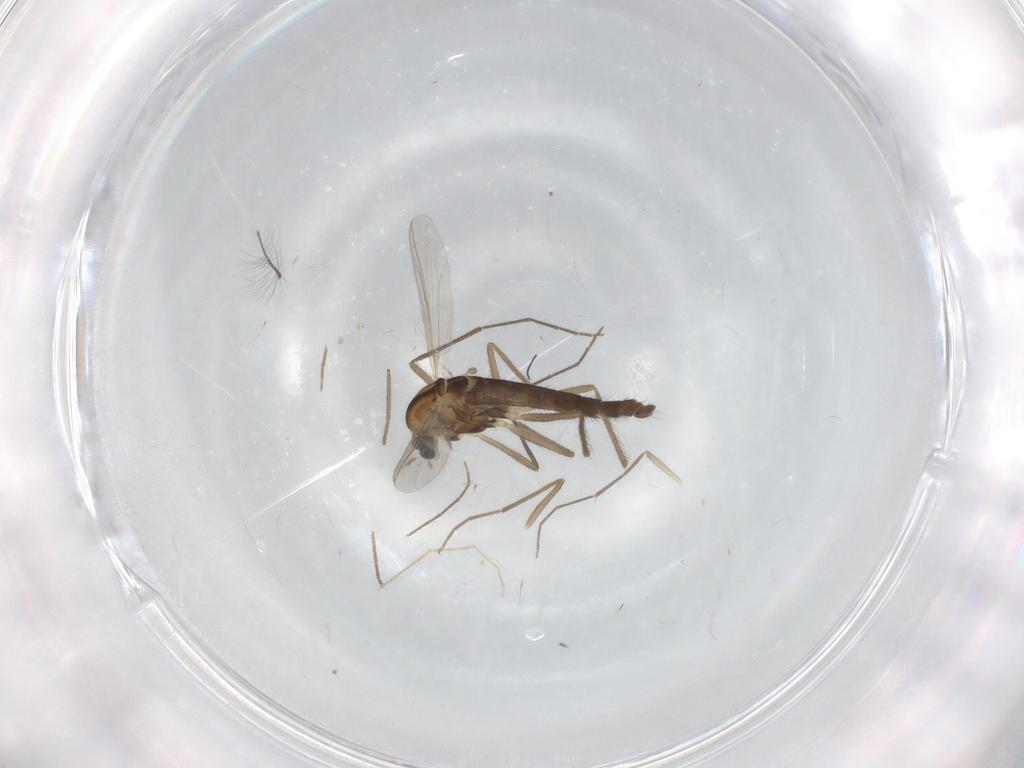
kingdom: Animalia
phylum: Arthropoda
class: Insecta
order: Diptera
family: Chironomidae
